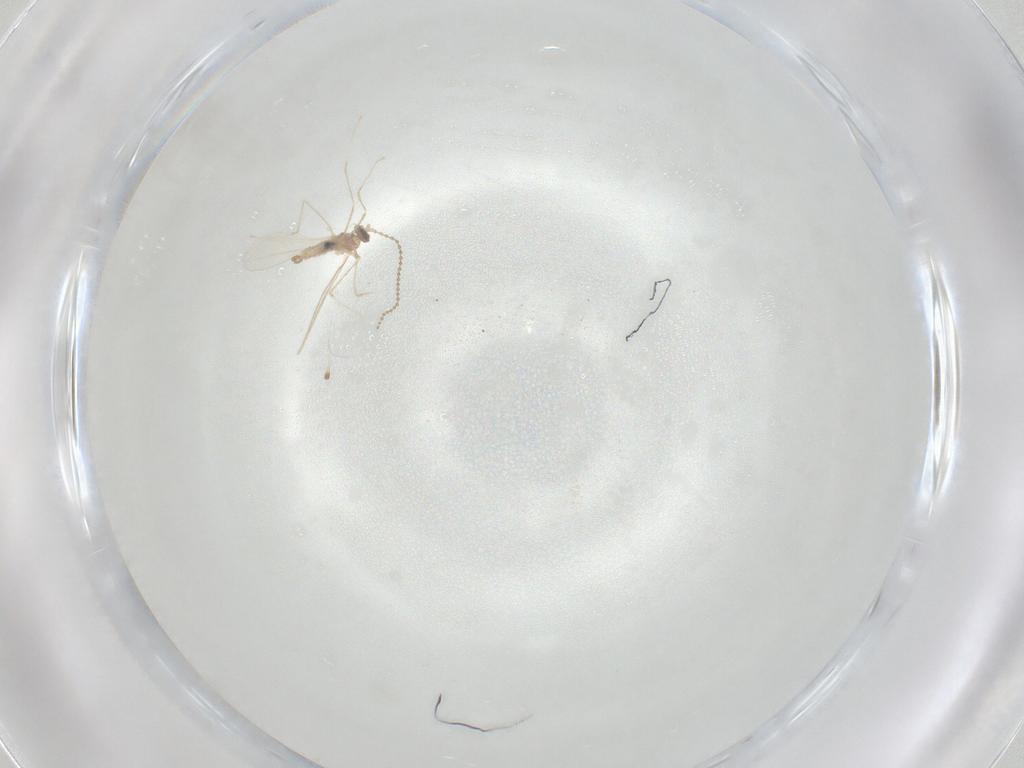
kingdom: Animalia
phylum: Arthropoda
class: Insecta
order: Diptera
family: Cecidomyiidae
